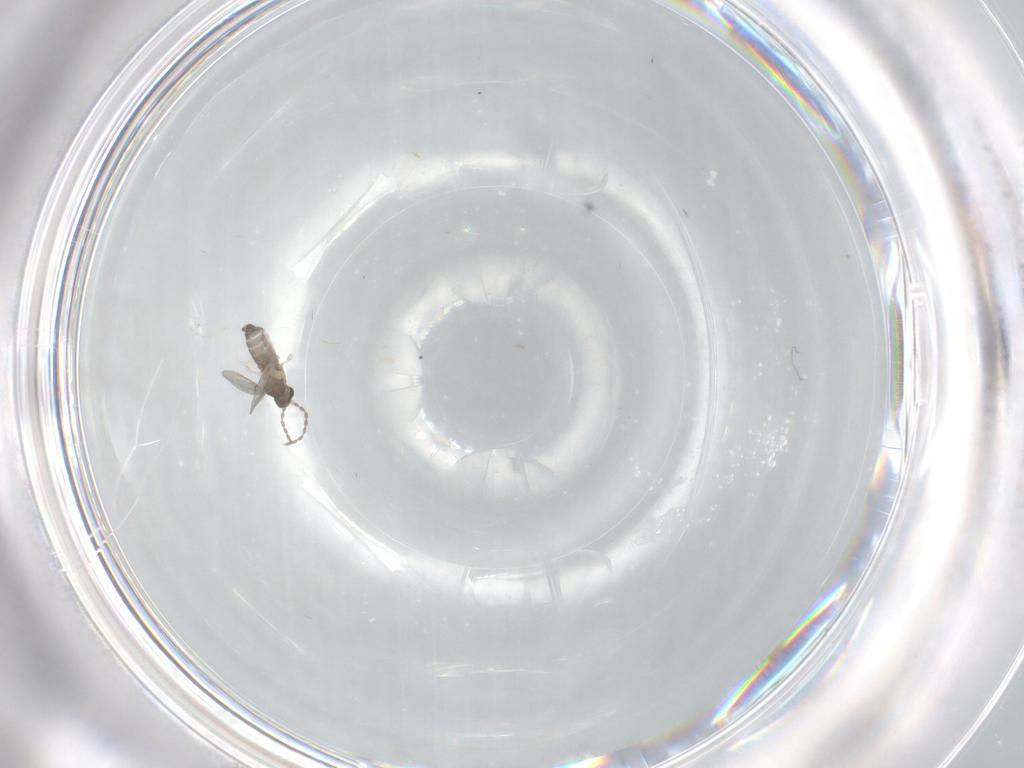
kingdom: Animalia
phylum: Arthropoda
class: Insecta
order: Diptera
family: Cecidomyiidae
